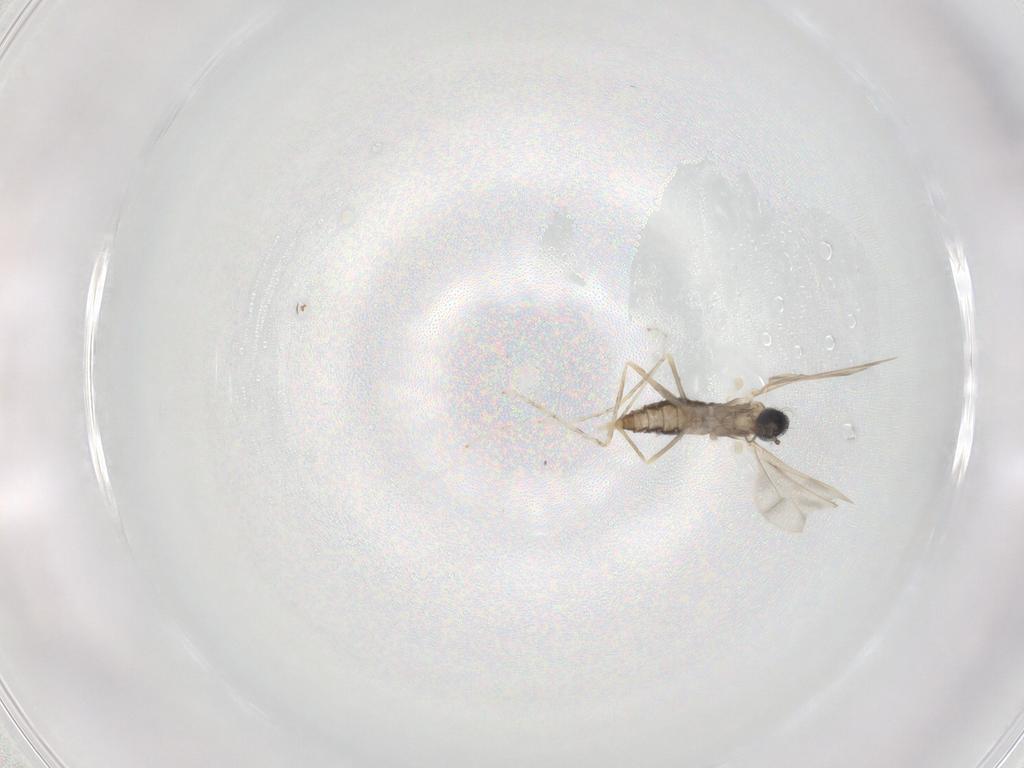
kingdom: Animalia
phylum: Arthropoda
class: Insecta
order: Diptera
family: Cecidomyiidae
